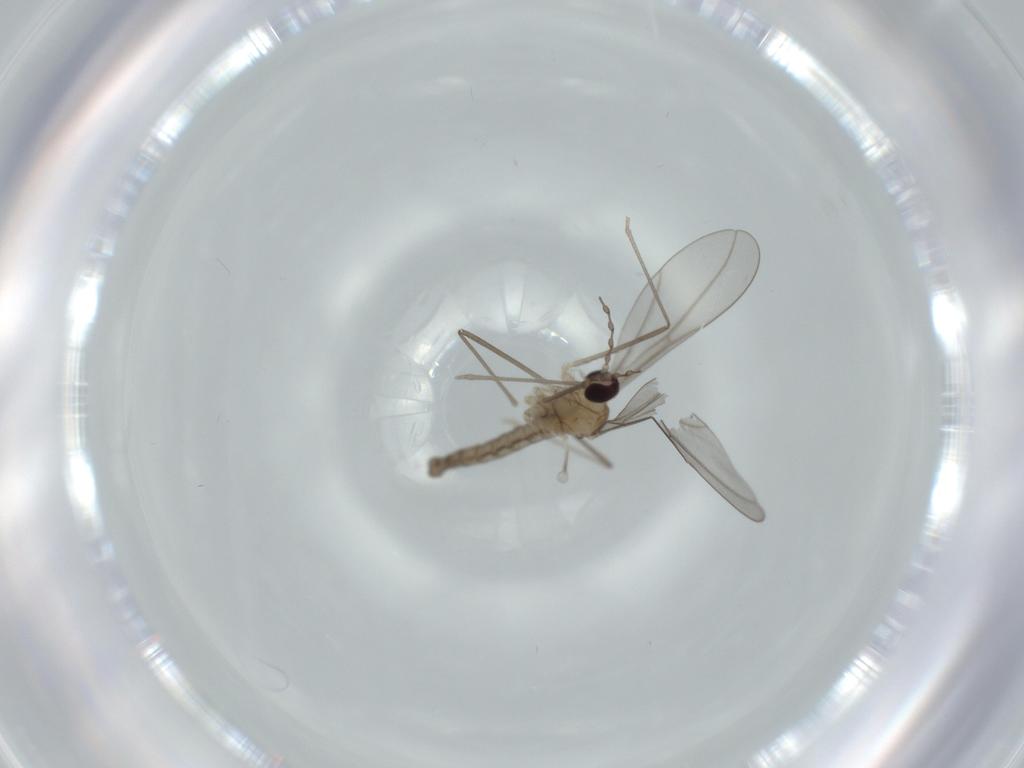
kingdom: Animalia
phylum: Arthropoda
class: Insecta
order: Diptera
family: Cecidomyiidae
